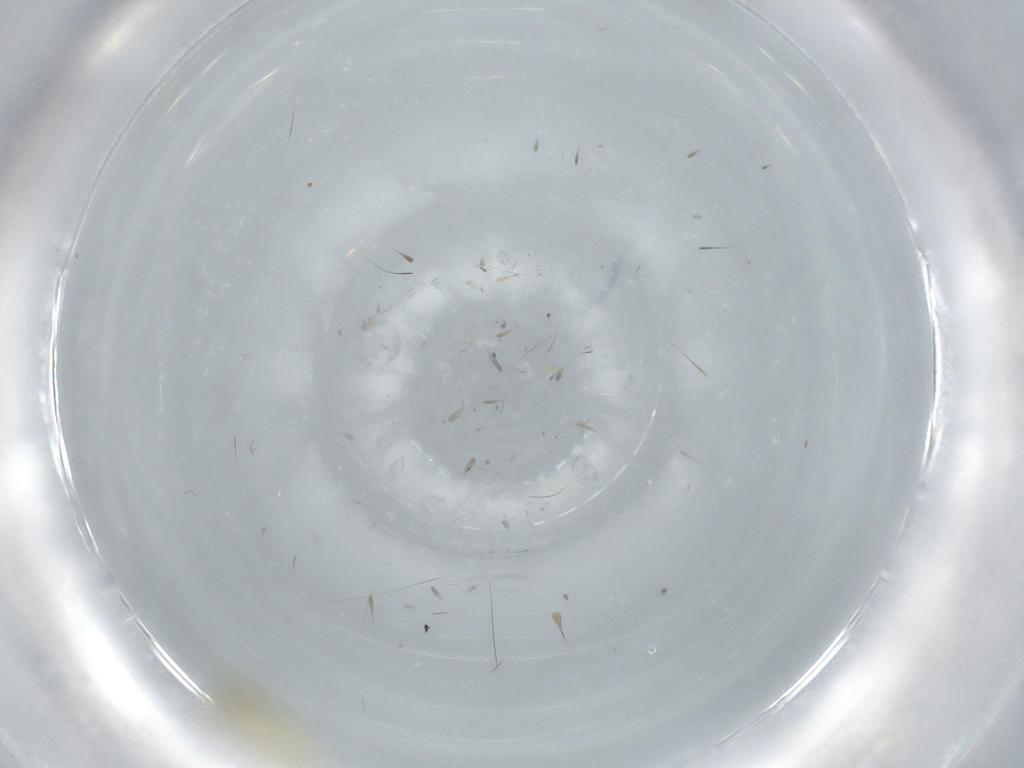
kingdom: Animalia
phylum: Arthropoda
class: Insecta
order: Diptera
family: Cecidomyiidae
